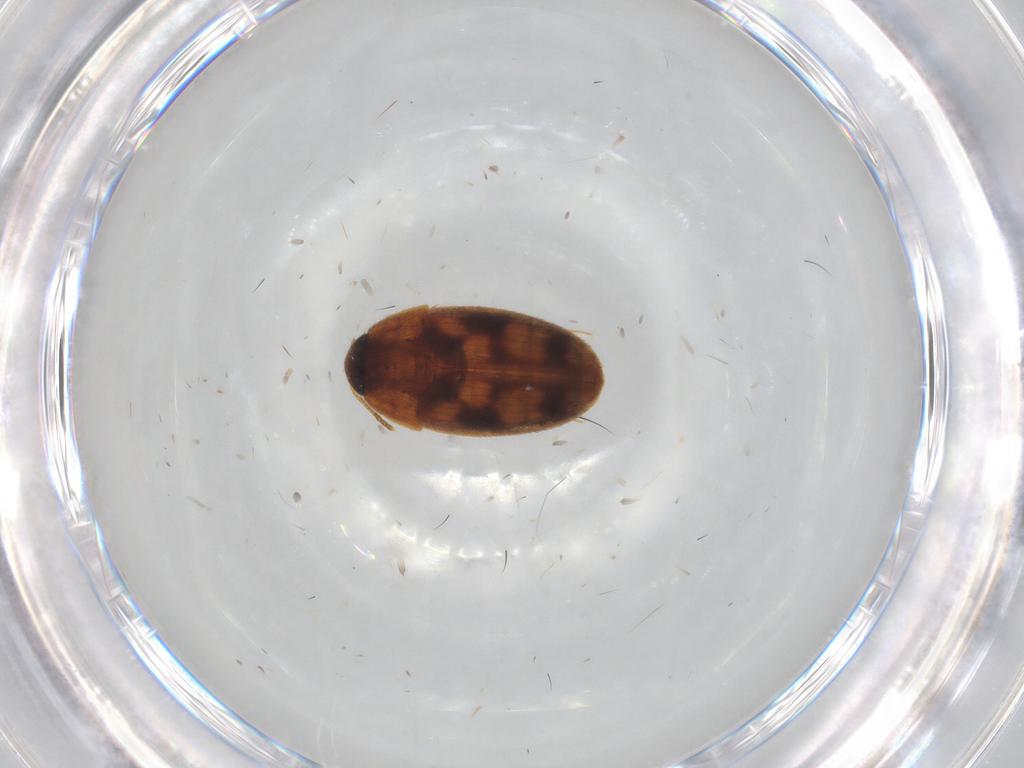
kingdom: Animalia
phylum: Arthropoda
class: Insecta
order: Coleoptera
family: Mycetophagidae
